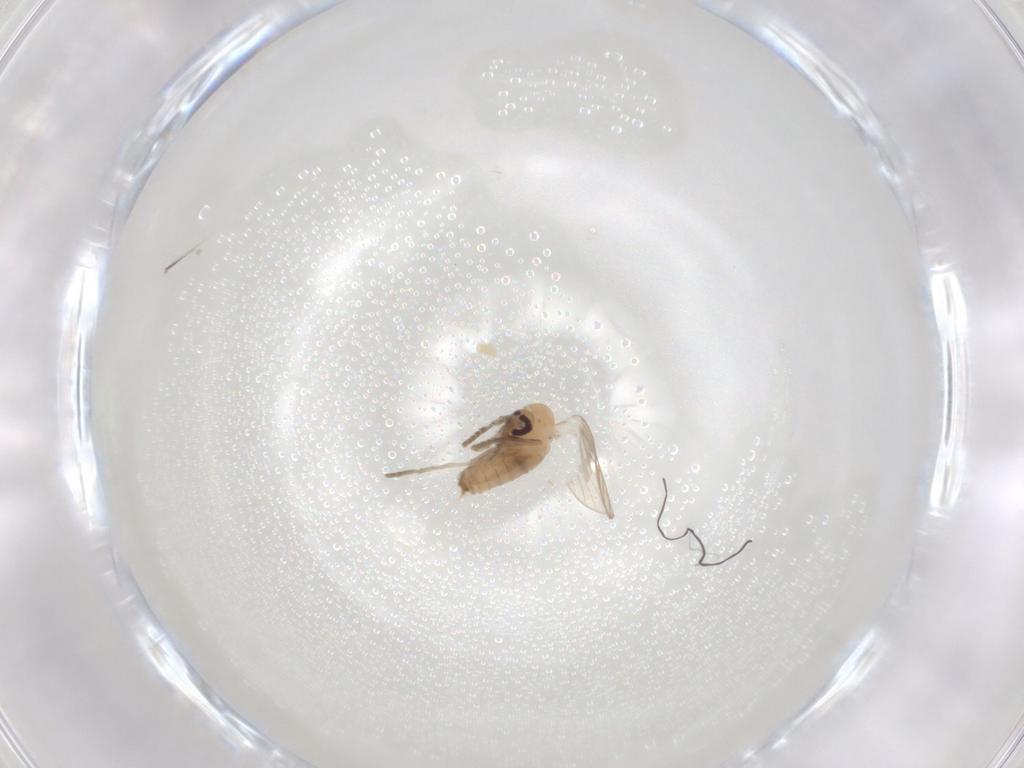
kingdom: Animalia
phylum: Arthropoda
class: Insecta
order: Diptera
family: Psychodidae
